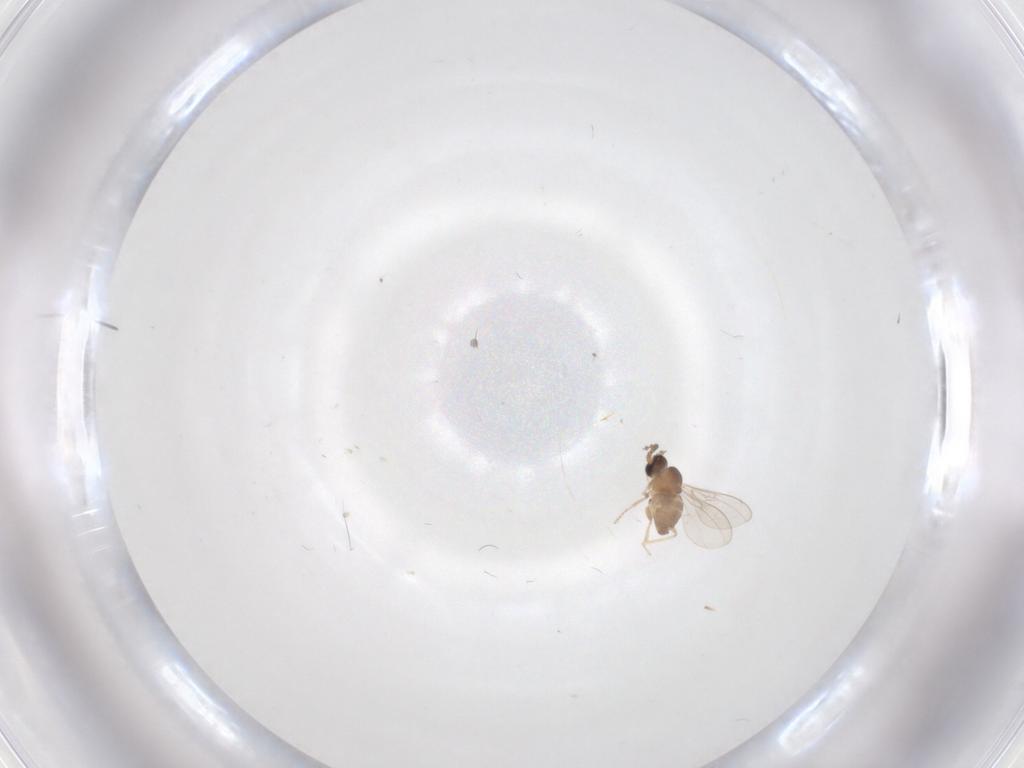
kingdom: Animalia
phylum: Arthropoda
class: Insecta
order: Diptera
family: Cecidomyiidae
